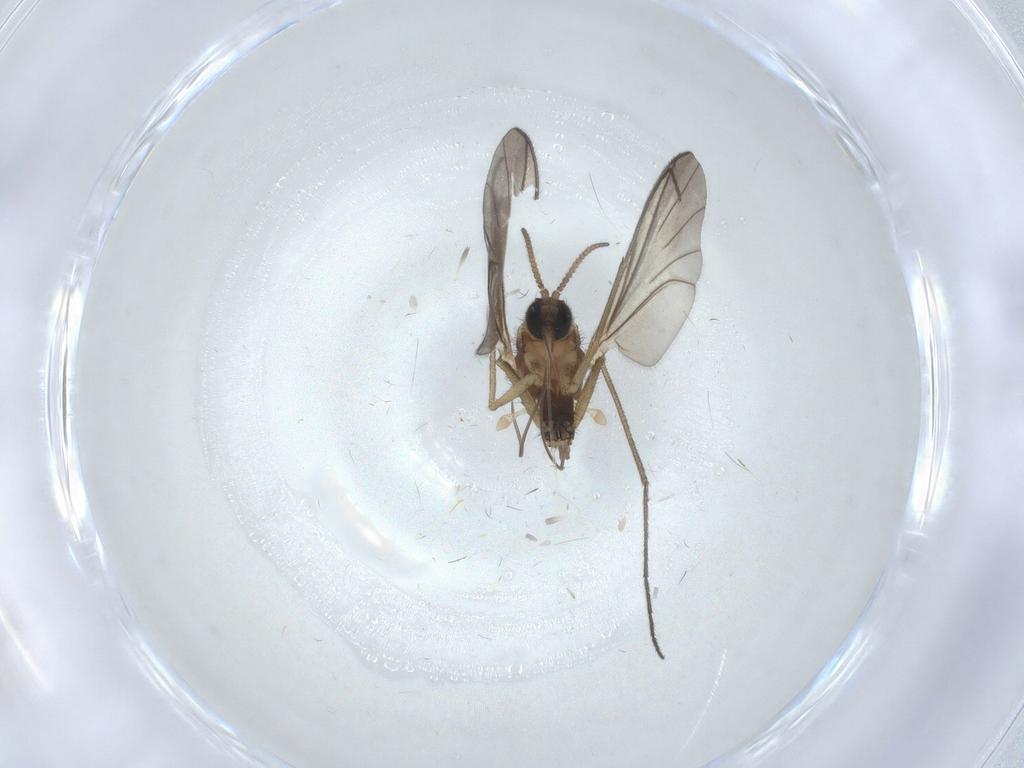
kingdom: Animalia
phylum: Arthropoda
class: Insecta
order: Diptera
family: Keroplatidae
